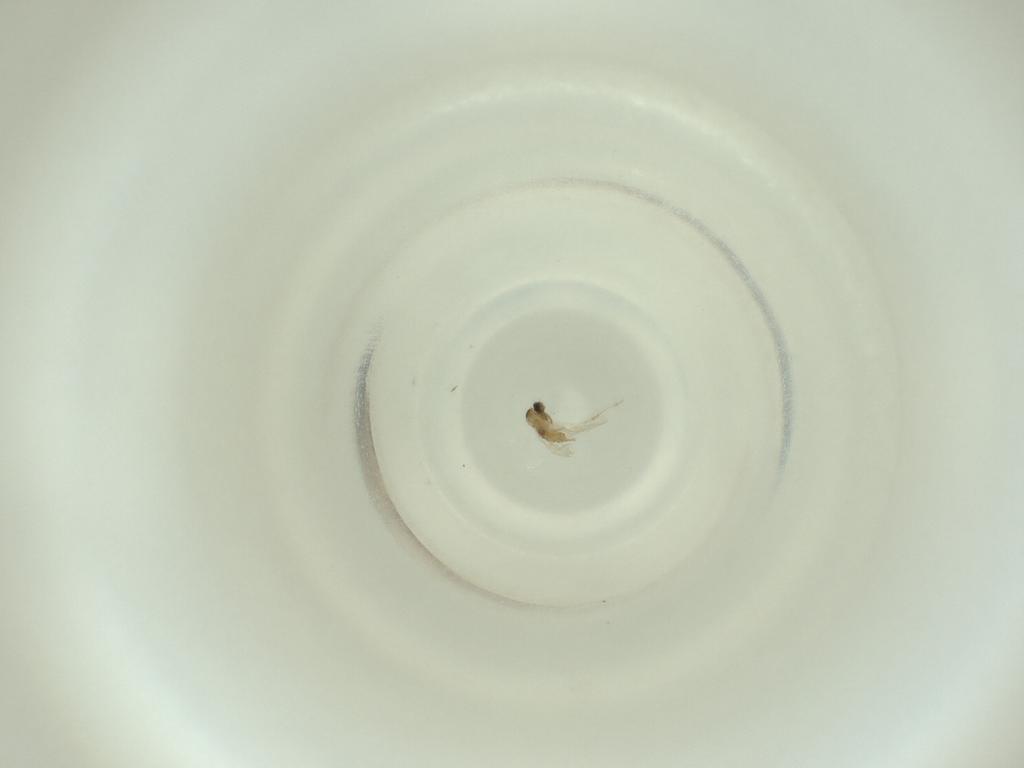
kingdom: Animalia
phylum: Arthropoda
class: Insecta
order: Diptera
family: Cecidomyiidae
